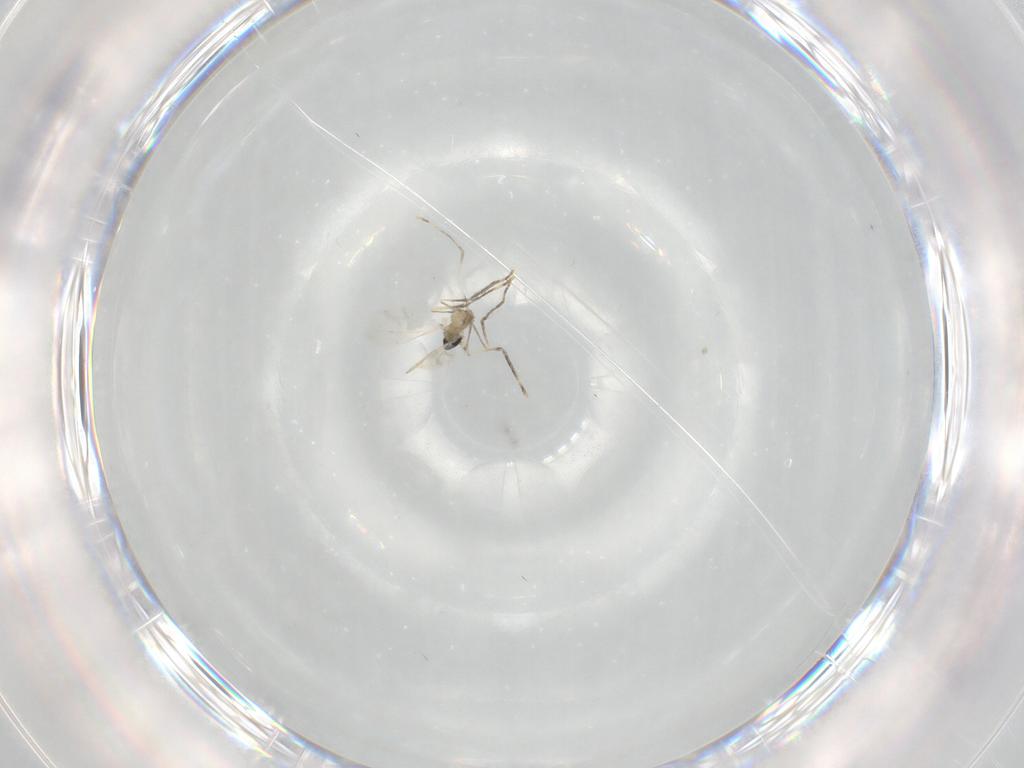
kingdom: Animalia
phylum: Arthropoda
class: Insecta
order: Diptera
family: Cecidomyiidae
